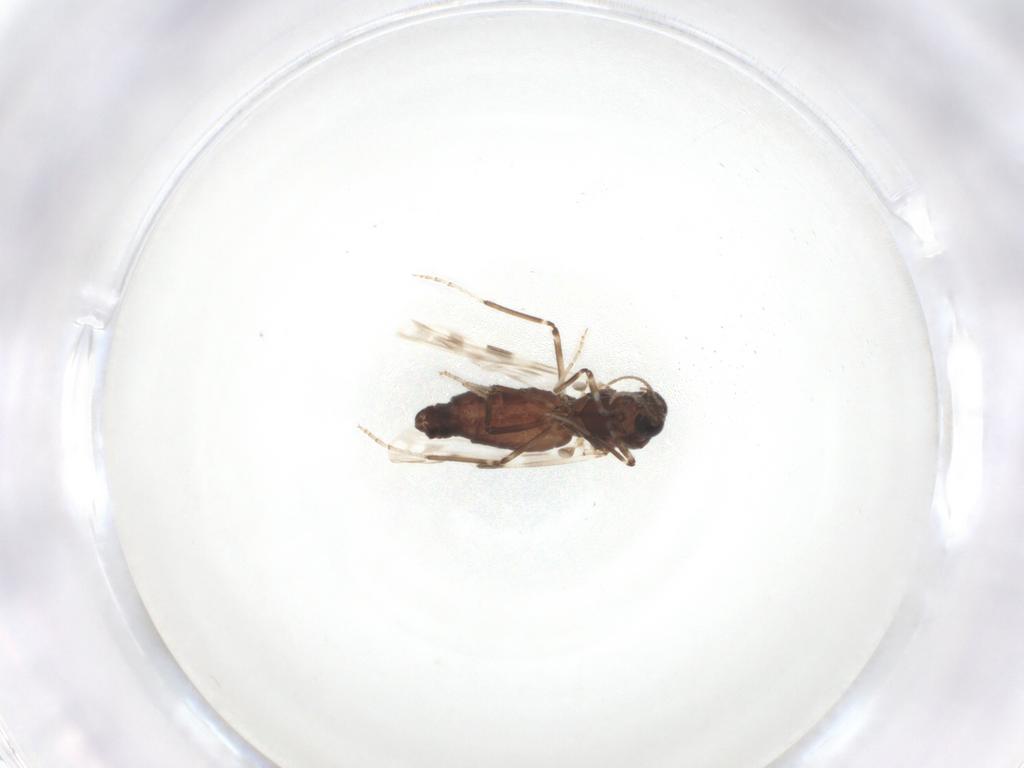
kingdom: Animalia
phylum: Arthropoda
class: Insecta
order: Diptera
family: Ceratopogonidae
